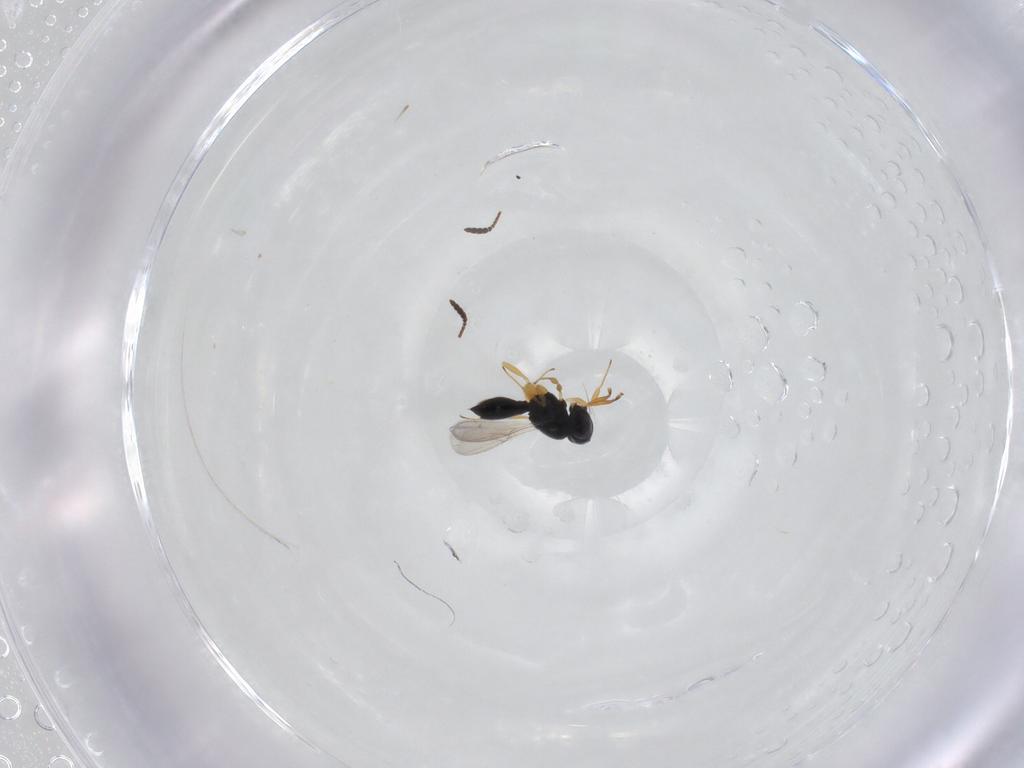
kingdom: Animalia
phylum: Arthropoda
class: Insecta
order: Hymenoptera
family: Scelionidae
